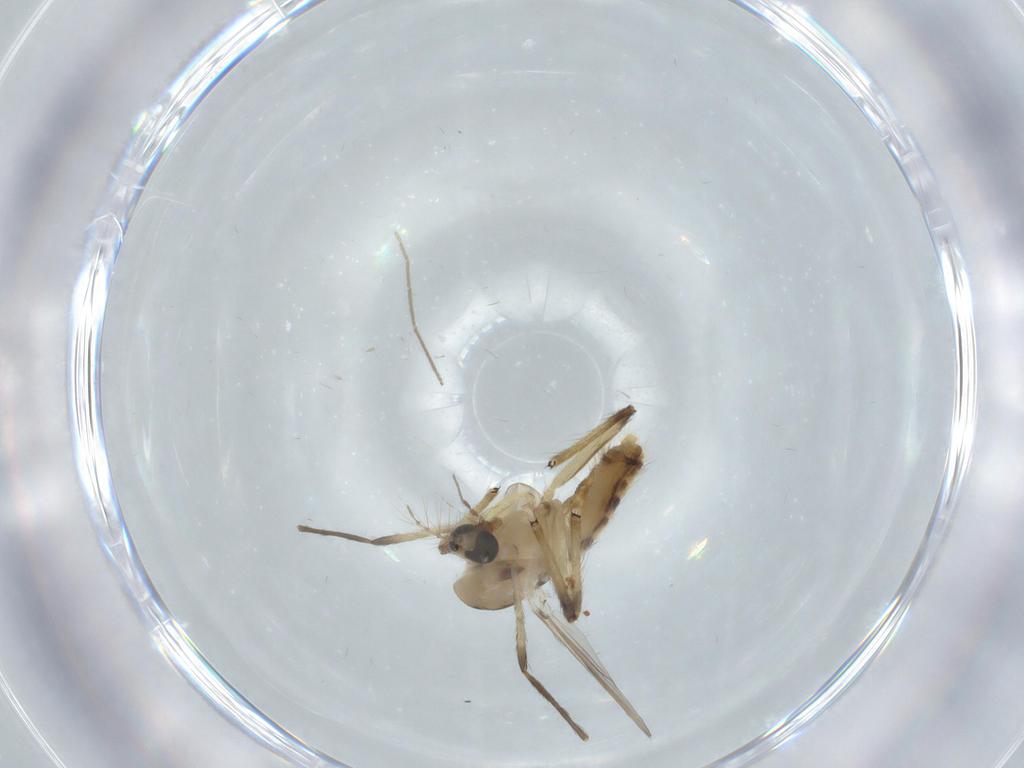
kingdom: Animalia
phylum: Arthropoda
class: Insecta
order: Diptera
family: Chironomidae
